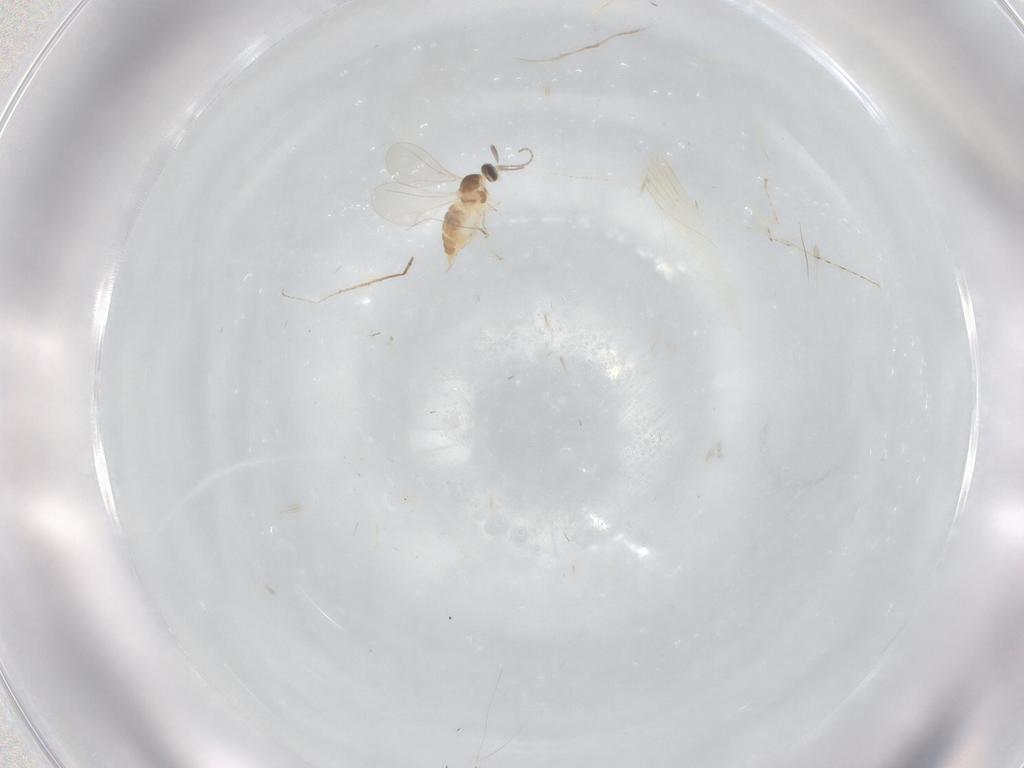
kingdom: Animalia
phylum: Arthropoda
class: Insecta
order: Diptera
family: Cecidomyiidae
